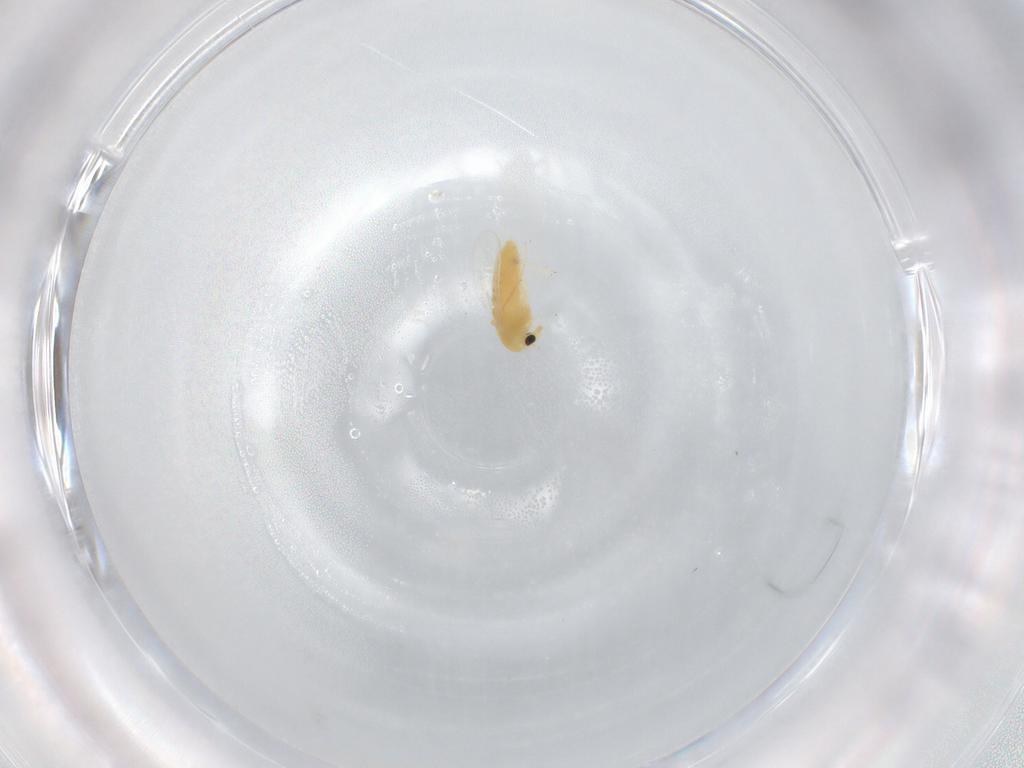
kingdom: Animalia
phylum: Arthropoda
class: Insecta
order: Diptera
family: Chironomidae
